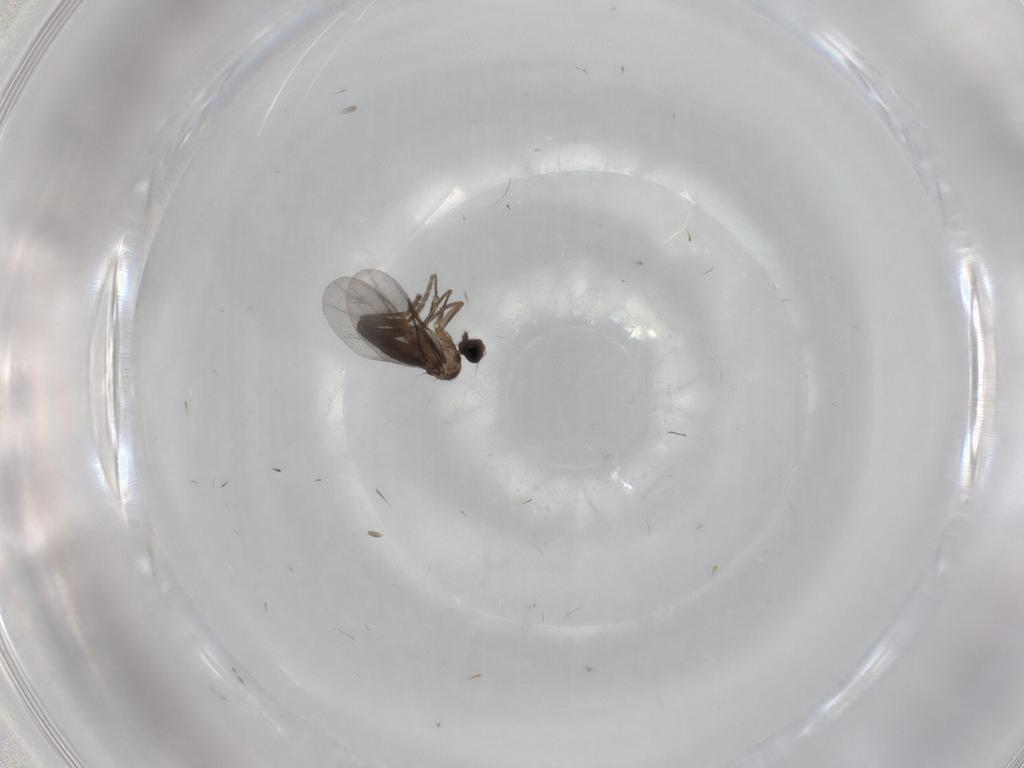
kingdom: Animalia
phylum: Arthropoda
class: Insecta
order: Diptera
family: Phoridae
